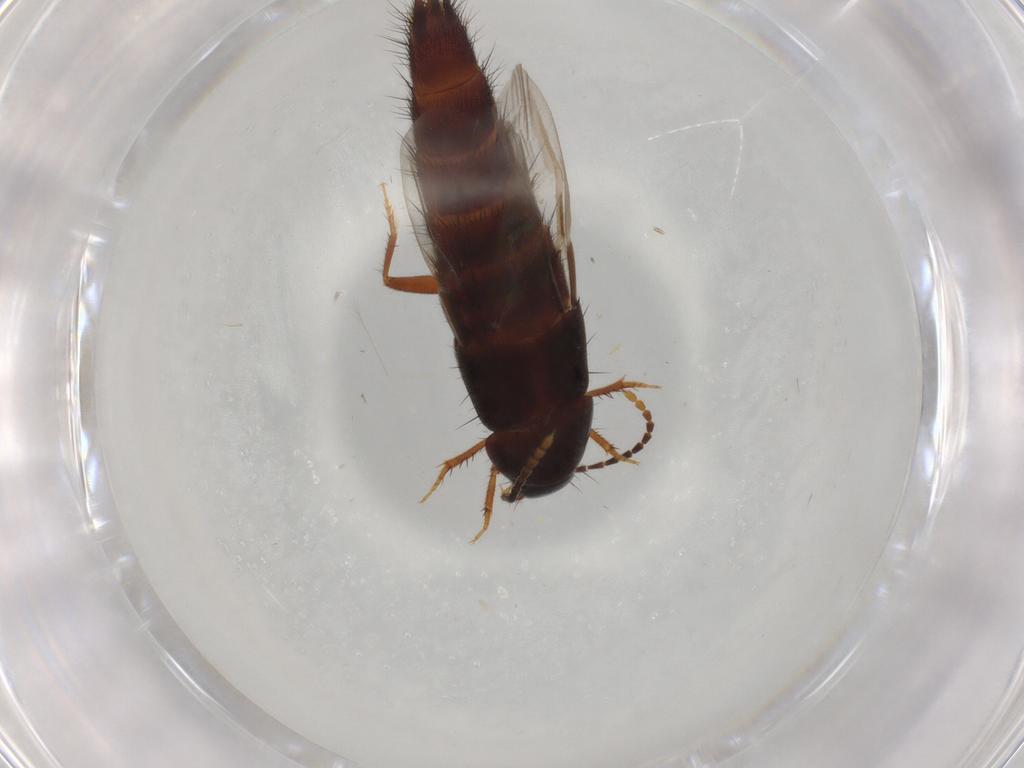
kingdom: Animalia
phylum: Arthropoda
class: Insecta
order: Coleoptera
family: Staphylinidae
